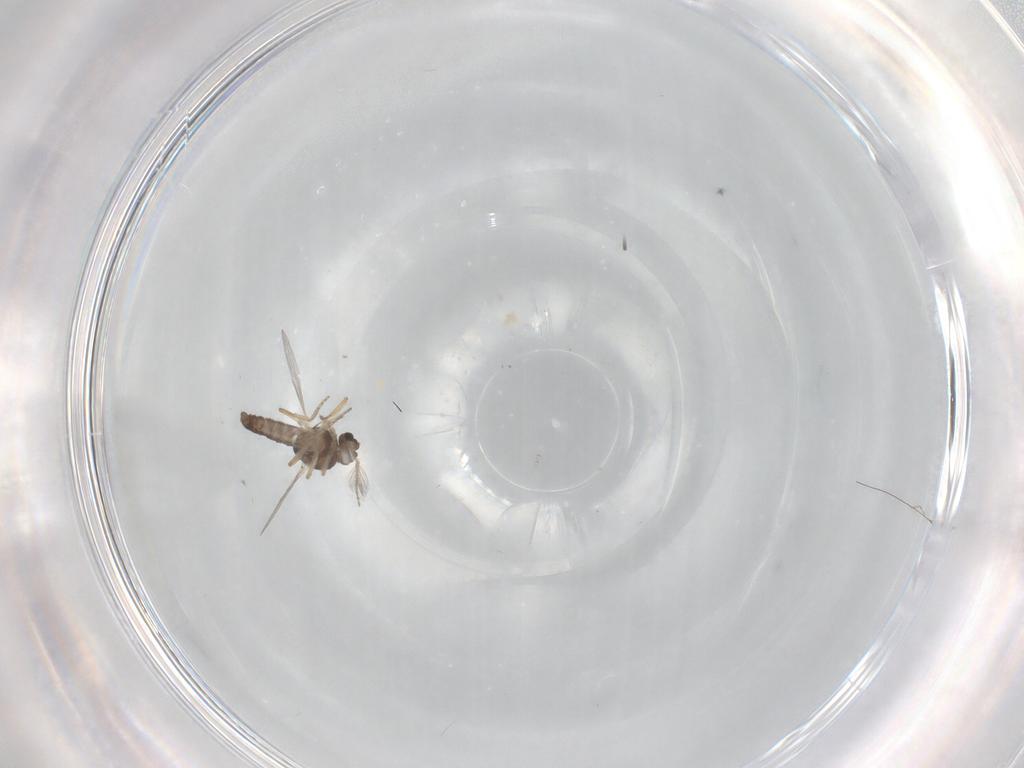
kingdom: Animalia
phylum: Arthropoda
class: Insecta
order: Diptera
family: Ceratopogonidae
